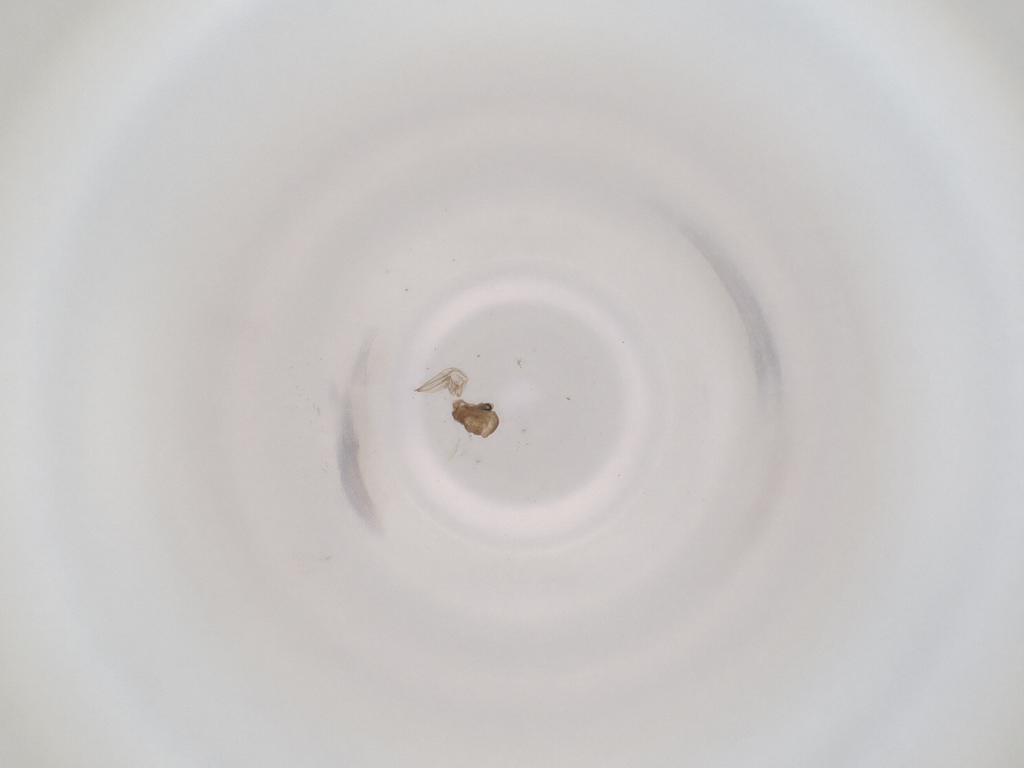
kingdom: Animalia
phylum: Arthropoda
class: Insecta
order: Diptera
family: Cecidomyiidae
